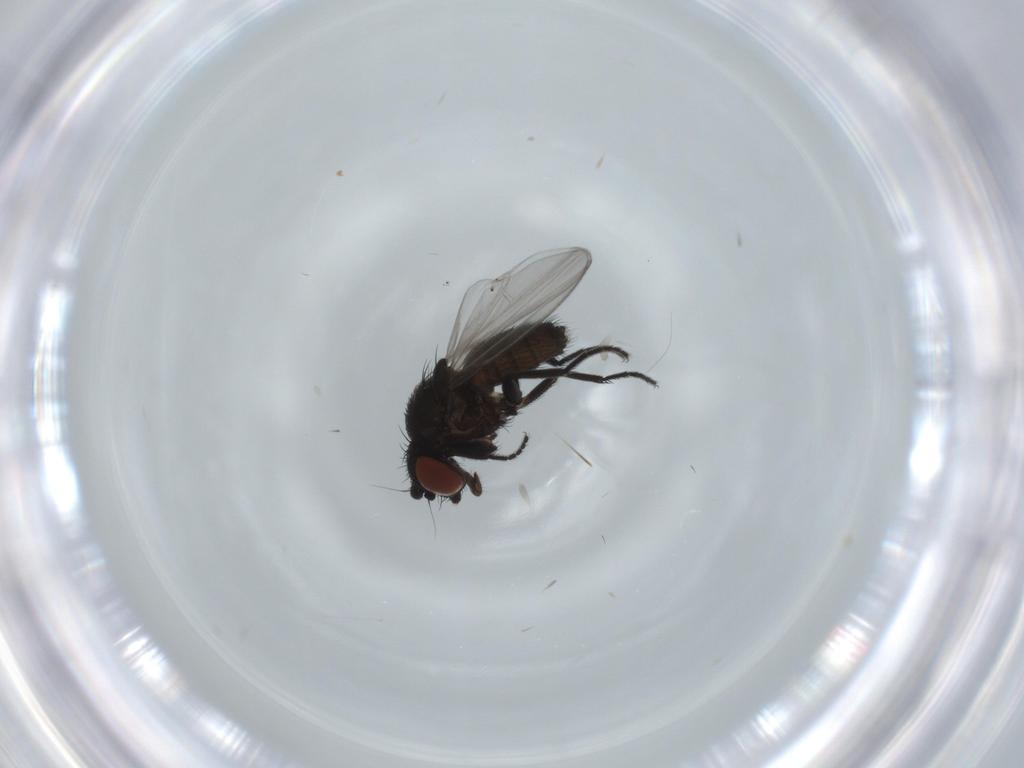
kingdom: Animalia
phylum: Arthropoda
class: Insecta
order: Diptera
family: Milichiidae
